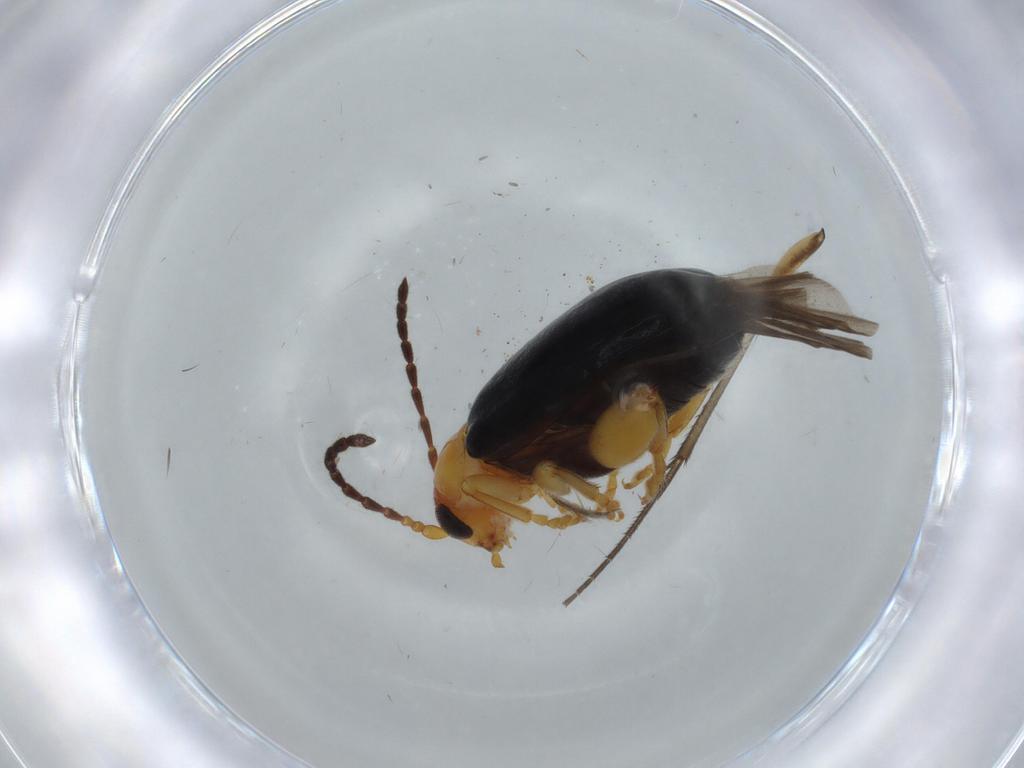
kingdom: Animalia
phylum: Arthropoda
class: Insecta
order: Coleoptera
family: Chrysomelidae
